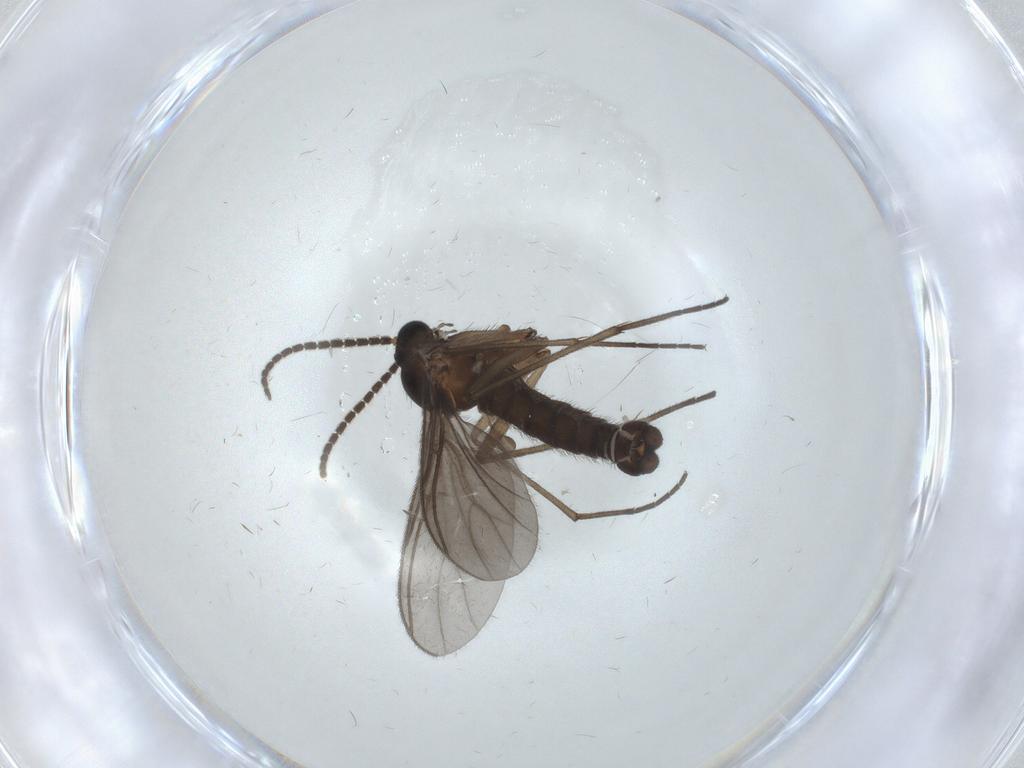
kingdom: Animalia
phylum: Arthropoda
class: Insecta
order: Diptera
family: Sciaridae
